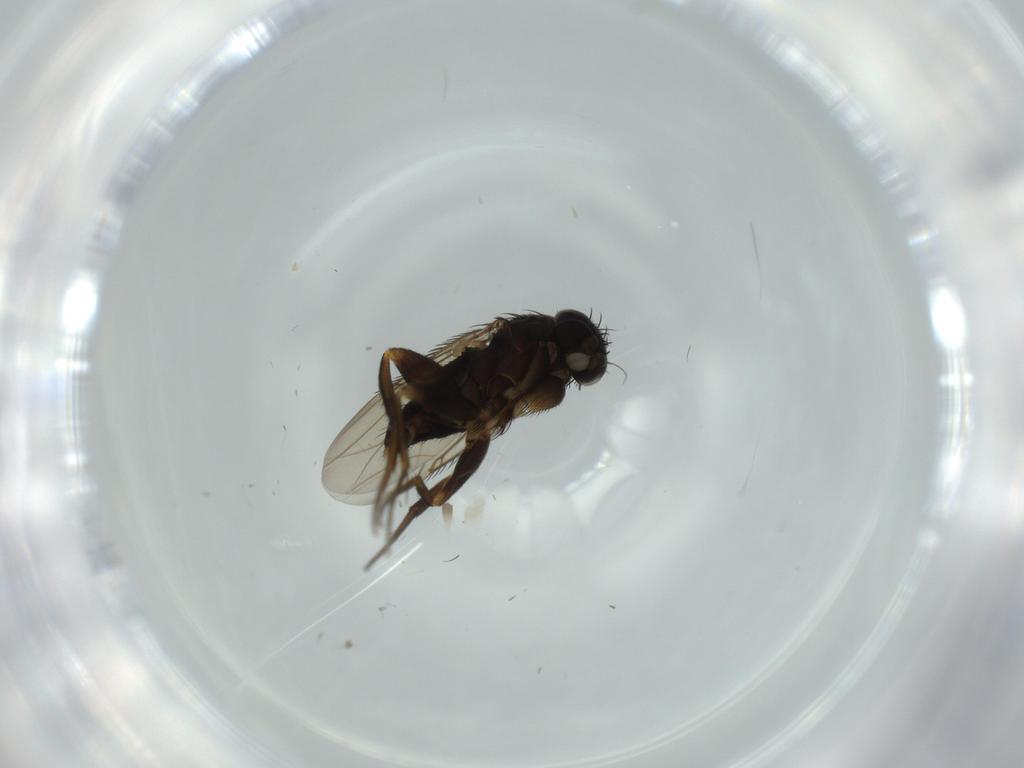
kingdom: Animalia
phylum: Arthropoda
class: Insecta
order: Diptera
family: Phoridae
